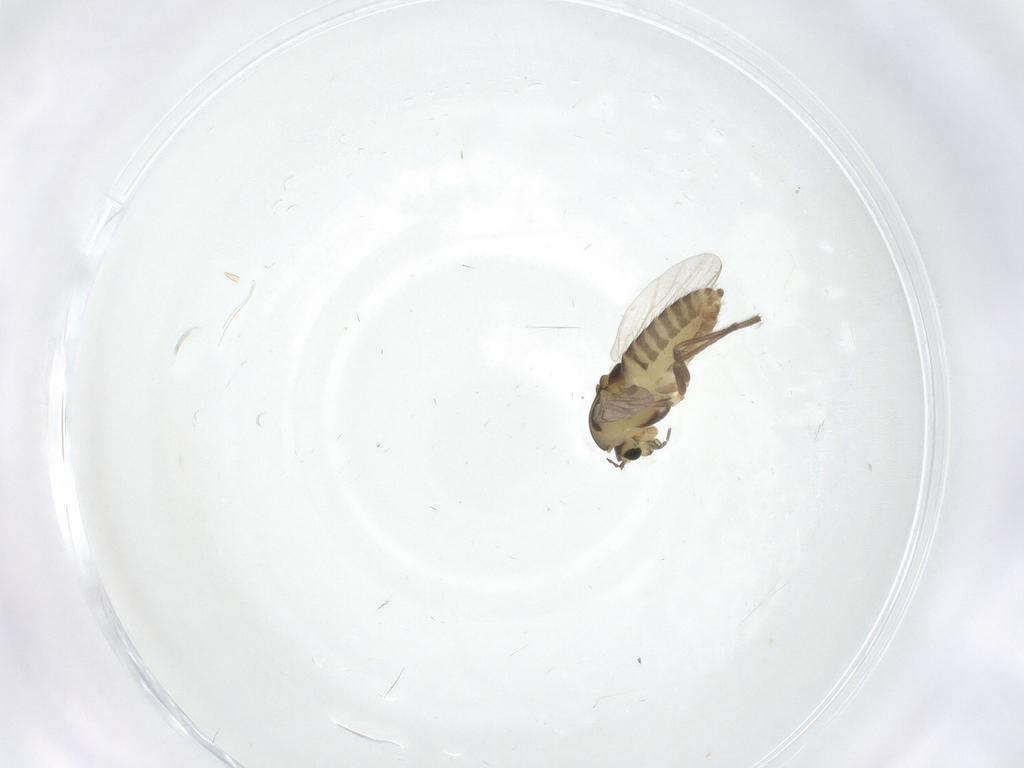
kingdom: Animalia
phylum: Arthropoda
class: Insecta
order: Diptera
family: Chironomidae
